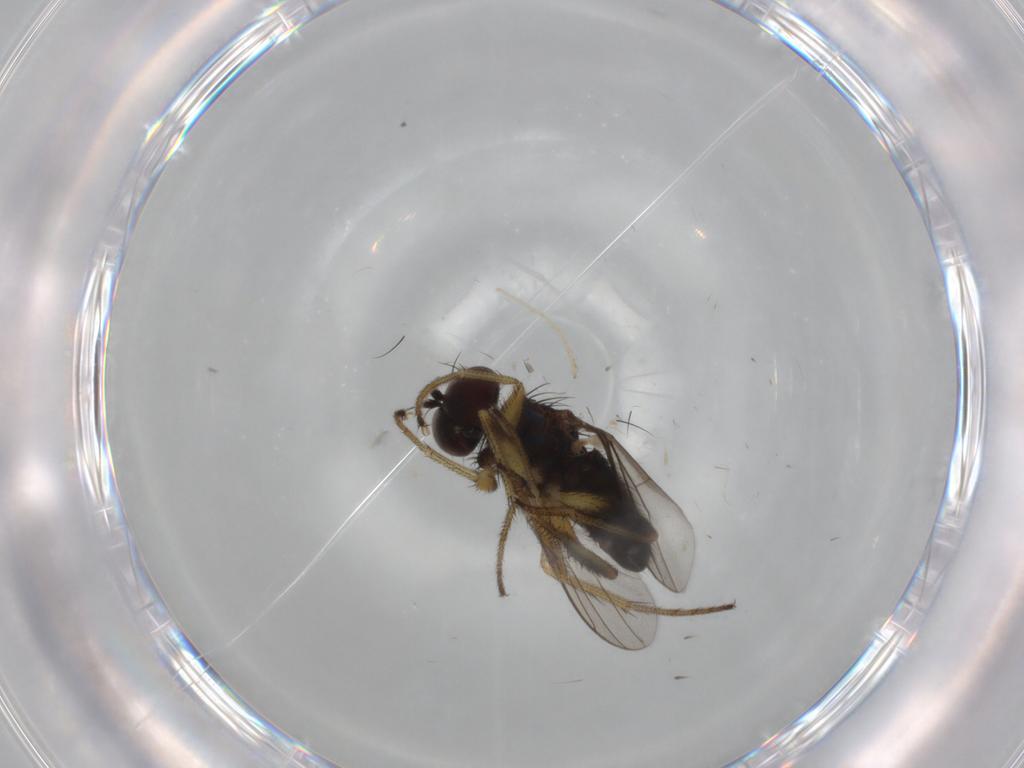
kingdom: Animalia
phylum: Arthropoda
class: Insecta
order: Diptera
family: Dolichopodidae
